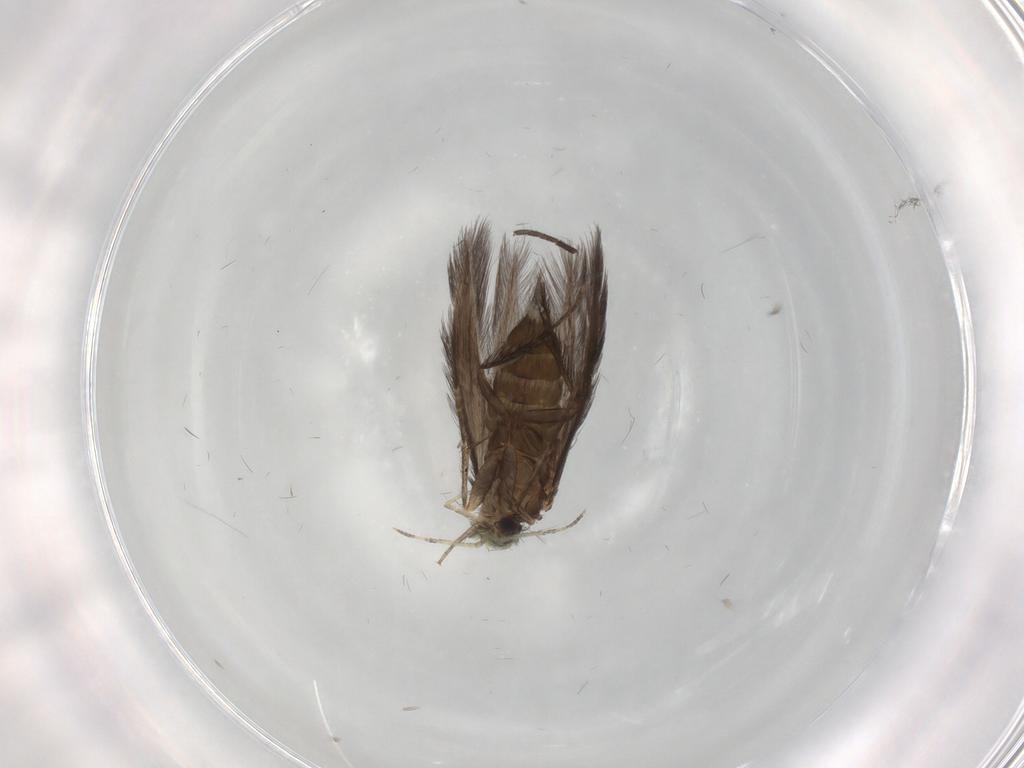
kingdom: Animalia
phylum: Arthropoda
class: Insecta
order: Trichoptera
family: Hydroptilidae
